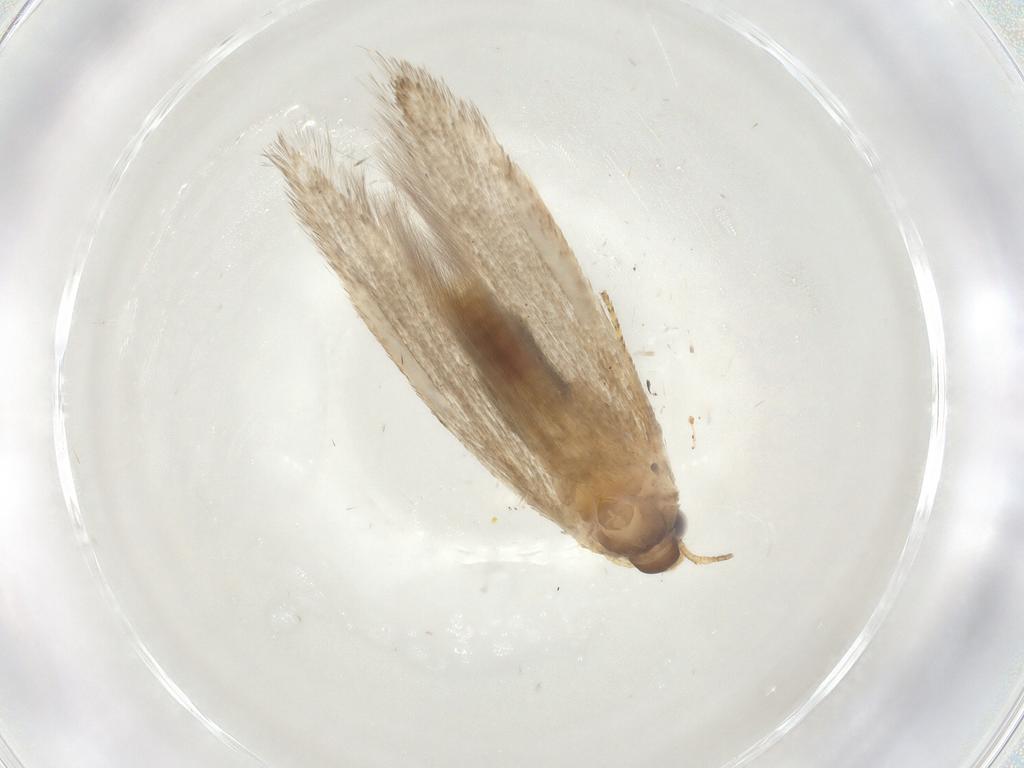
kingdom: Animalia
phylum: Arthropoda
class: Insecta
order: Lepidoptera
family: Coleophoridae
